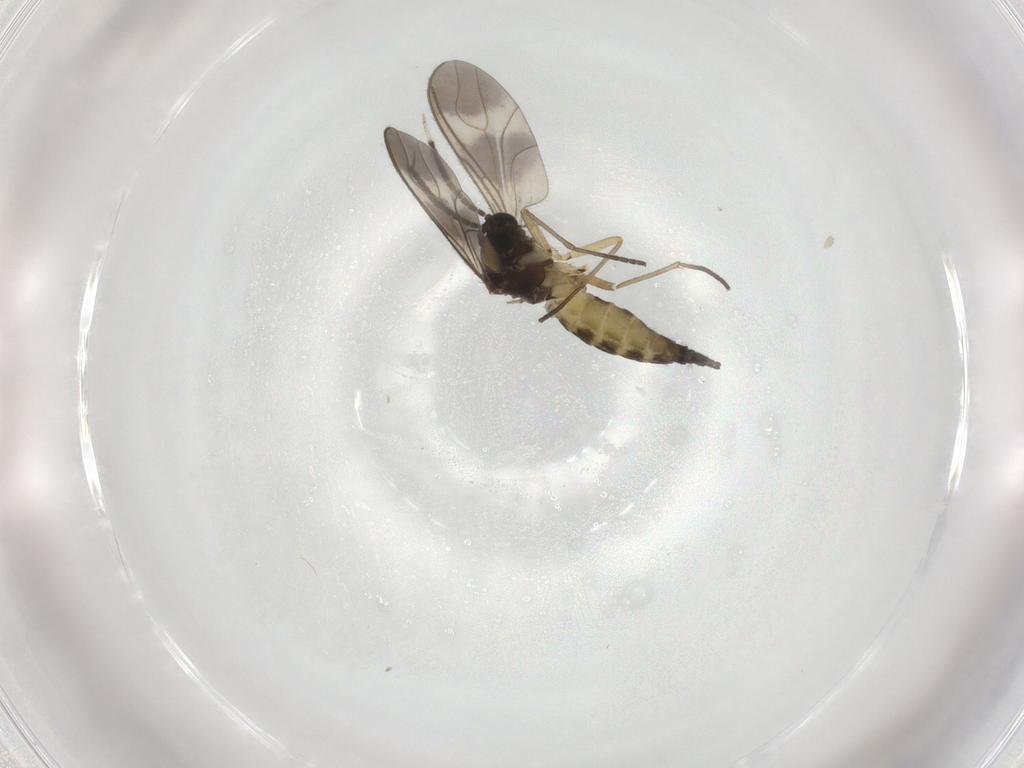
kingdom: Animalia
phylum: Arthropoda
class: Insecta
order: Diptera
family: Sciaridae
